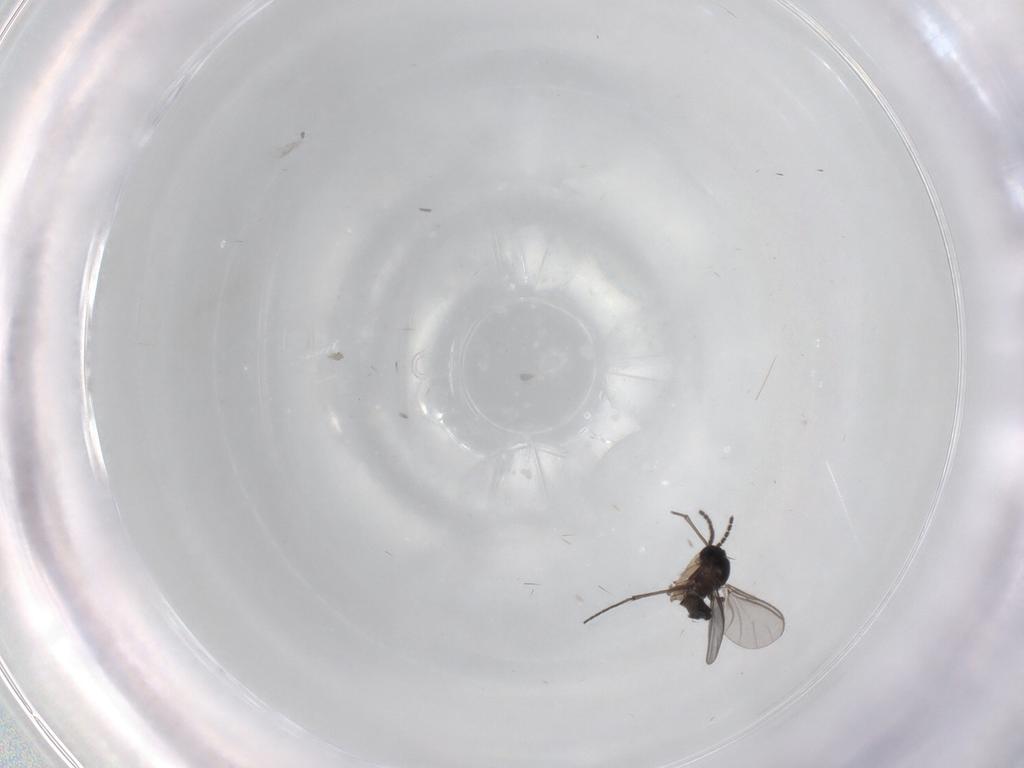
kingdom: Animalia
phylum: Arthropoda
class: Insecta
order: Diptera
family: Ceratopogonidae
